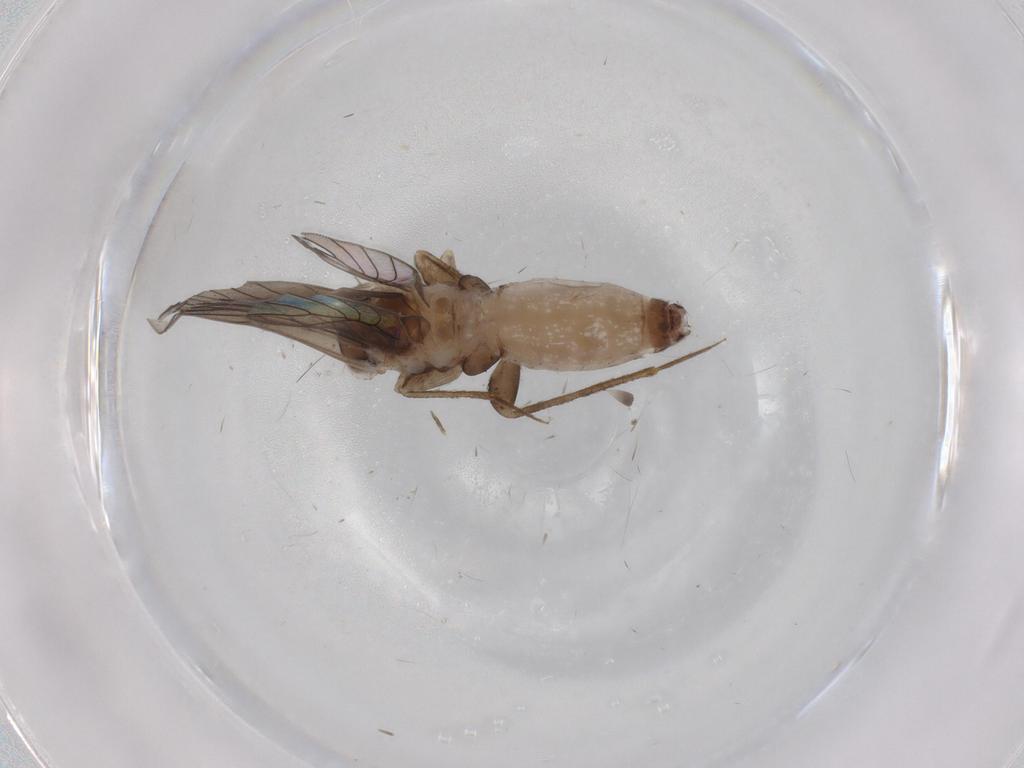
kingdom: Animalia
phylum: Arthropoda
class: Insecta
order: Psocodea
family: Lepidopsocidae
